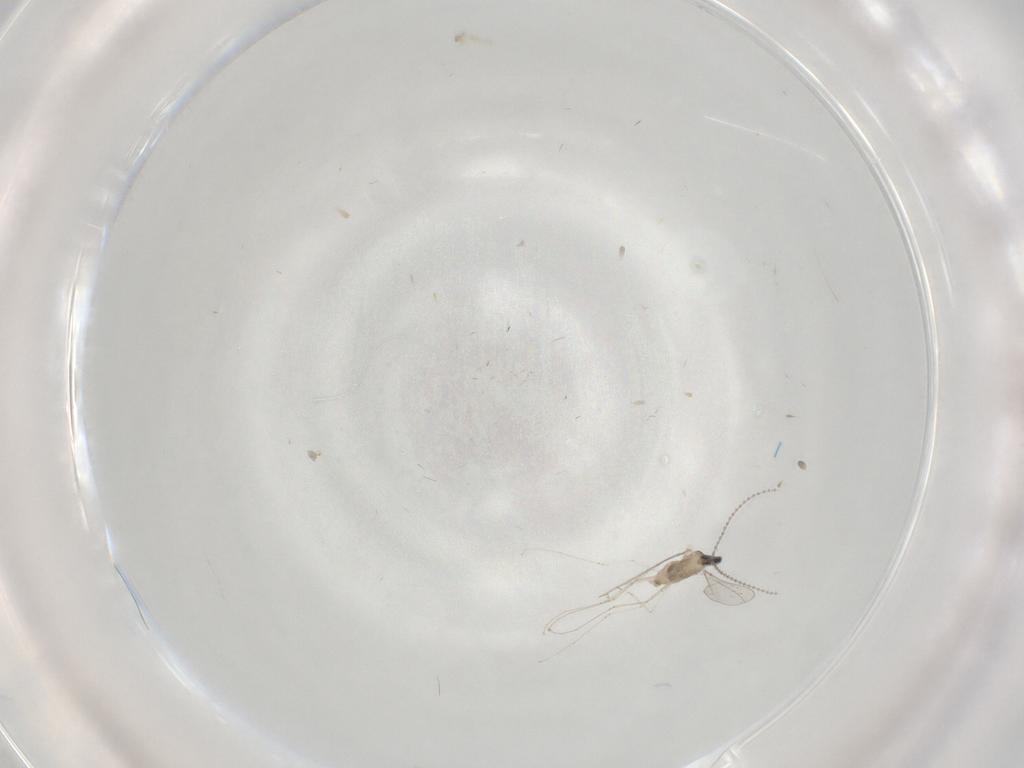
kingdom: Animalia
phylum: Arthropoda
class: Insecta
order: Diptera
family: Cecidomyiidae
